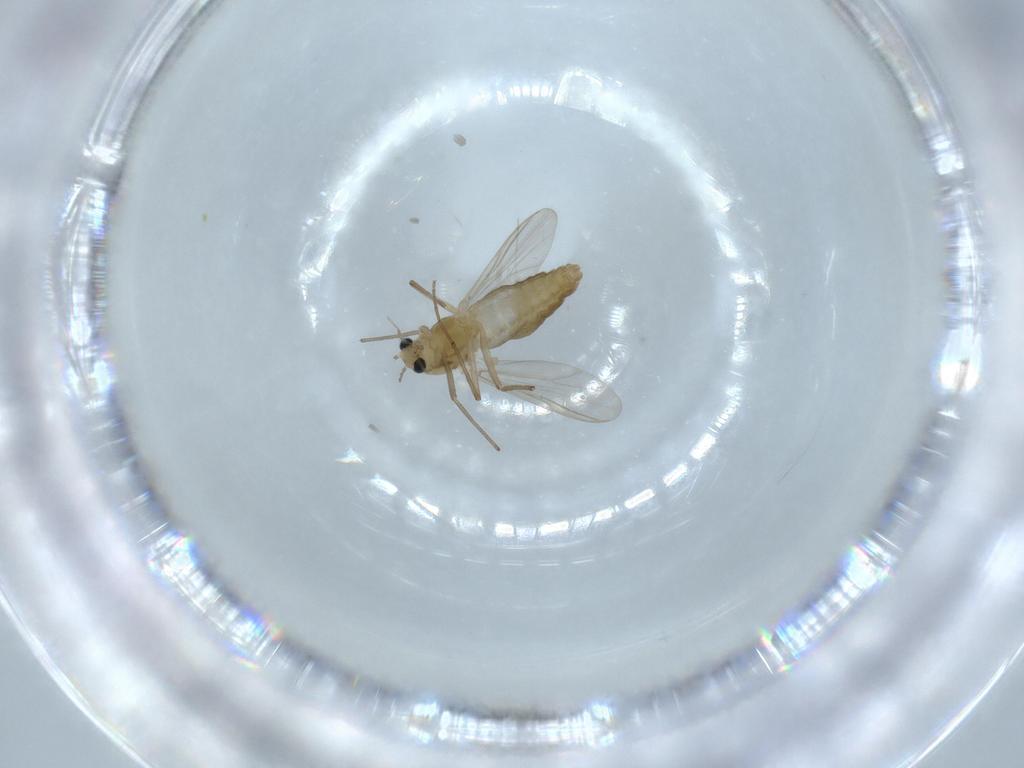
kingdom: Animalia
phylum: Arthropoda
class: Insecta
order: Diptera
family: Chironomidae
